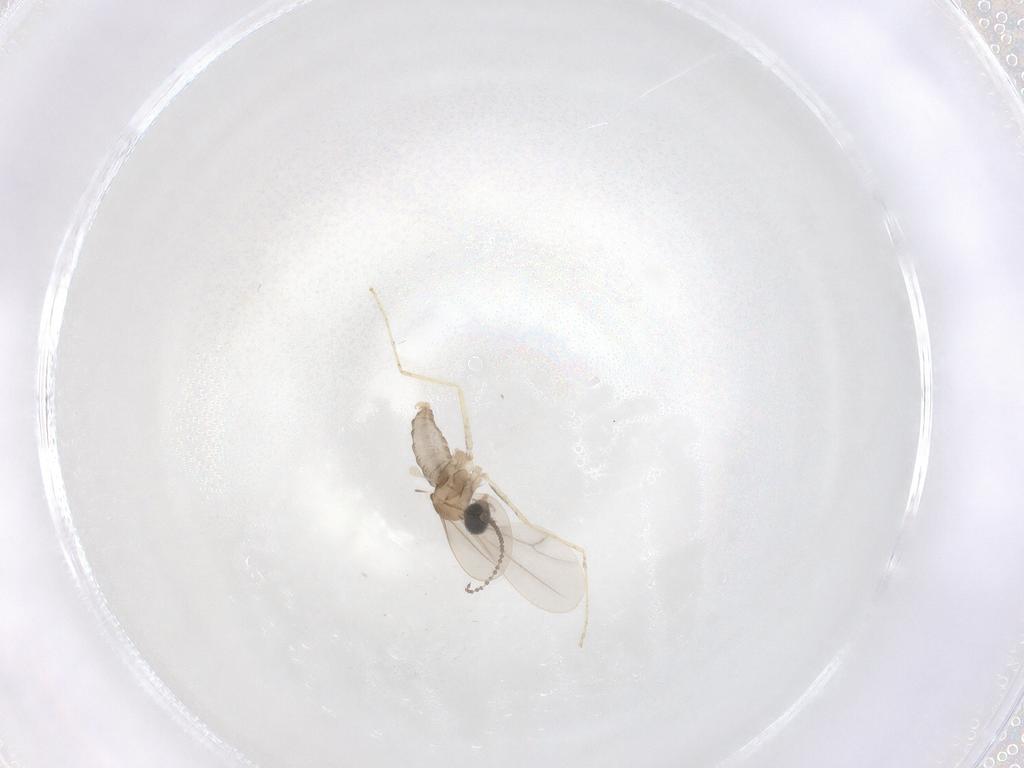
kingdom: Animalia
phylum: Arthropoda
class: Insecta
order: Diptera
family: Cecidomyiidae
